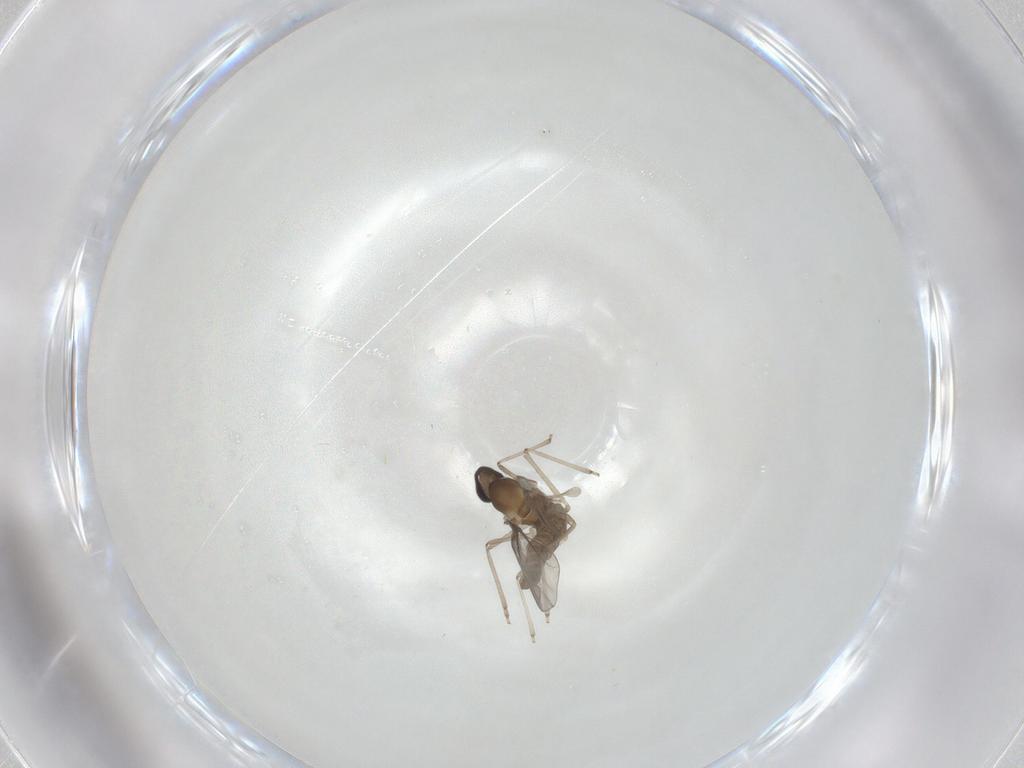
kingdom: Animalia
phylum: Arthropoda
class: Insecta
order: Diptera
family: Cecidomyiidae
